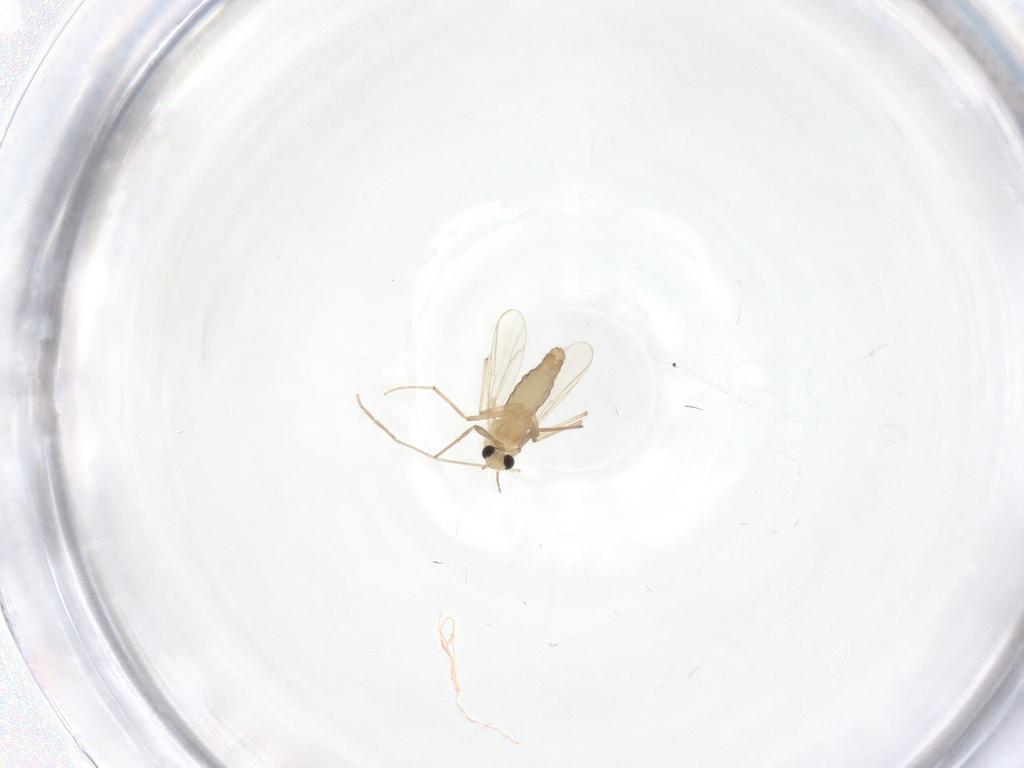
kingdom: Animalia
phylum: Arthropoda
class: Insecta
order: Diptera
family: Chironomidae
